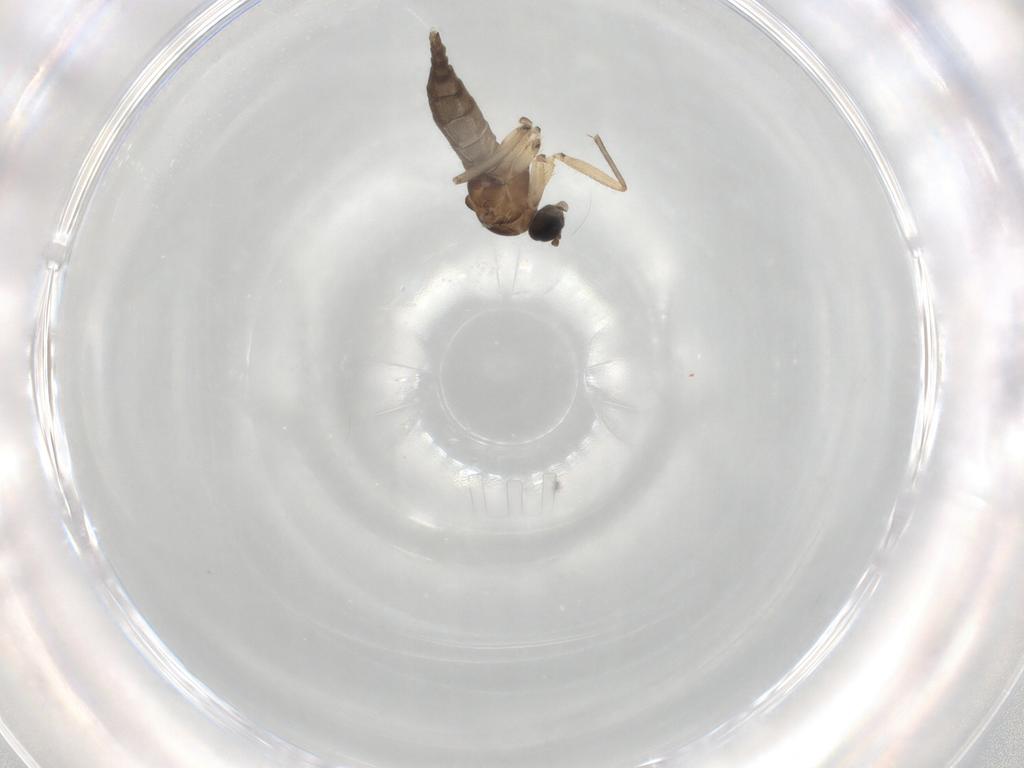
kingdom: Animalia
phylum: Arthropoda
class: Insecta
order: Diptera
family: Sciaridae
